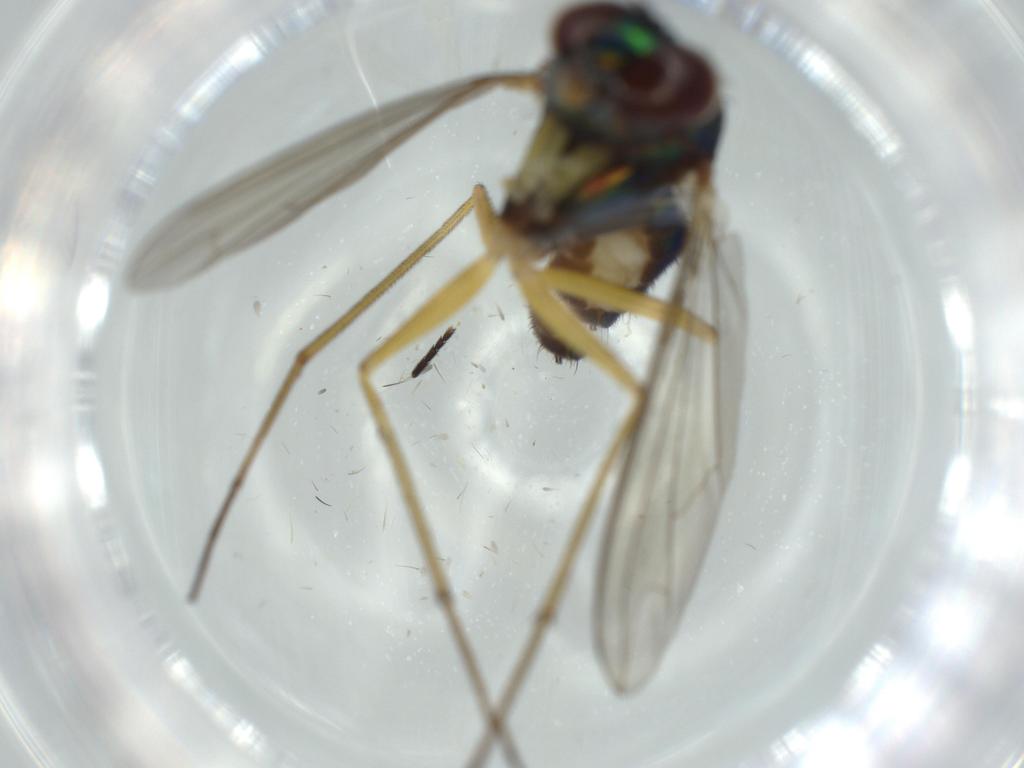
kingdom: Animalia
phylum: Arthropoda
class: Insecta
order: Diptera
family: Dolichopodidae
